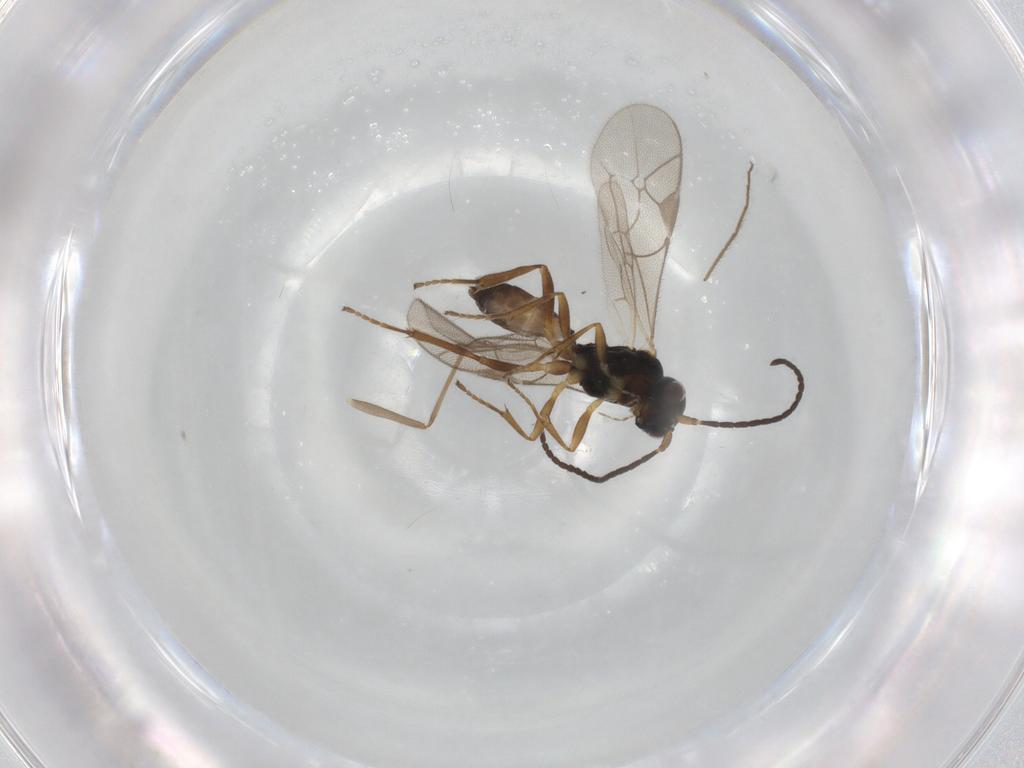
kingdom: Animalia
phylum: Arthropoda
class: Insecta
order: Hymenoptera
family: Ichneumonidae
